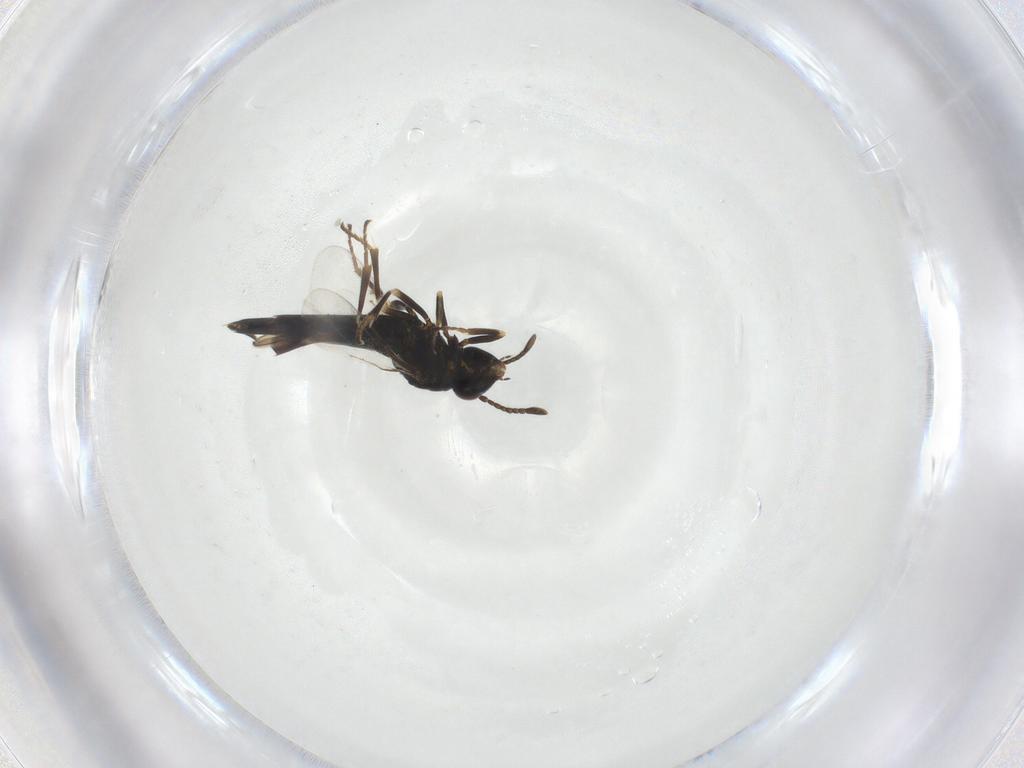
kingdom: Animalia
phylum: Arthropoda
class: Insecta
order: Hymenoptera
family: Encyrtidae
